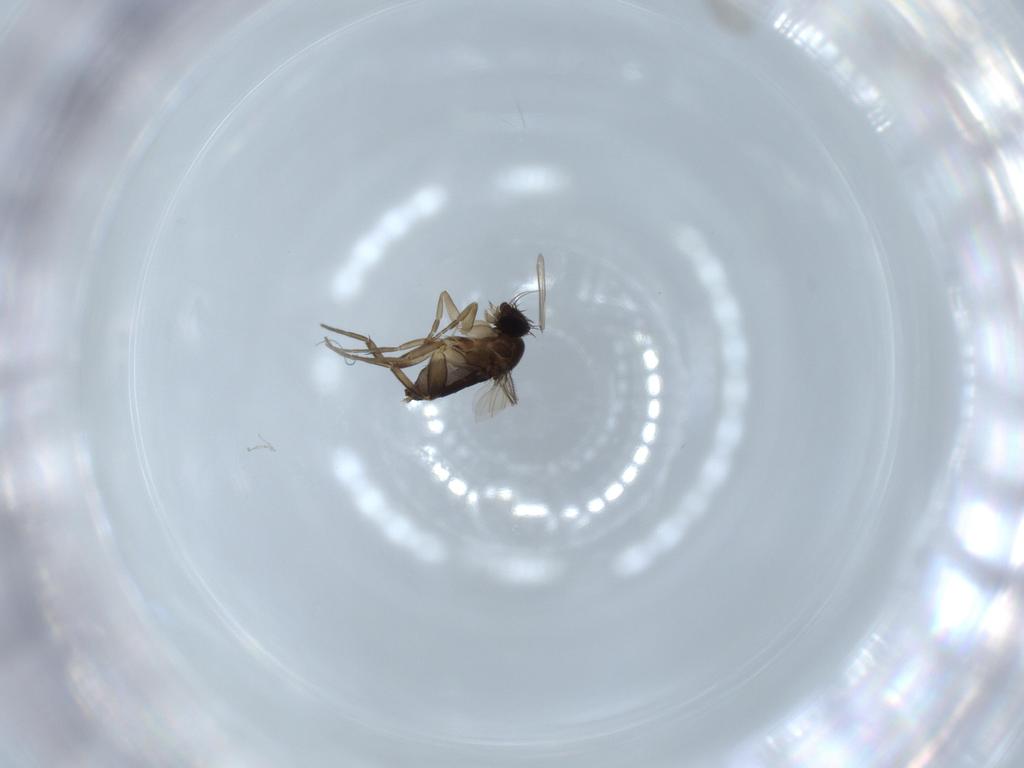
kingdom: Animalia
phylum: Arthropoda
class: Insecta
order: Diptera
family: Phoridae
